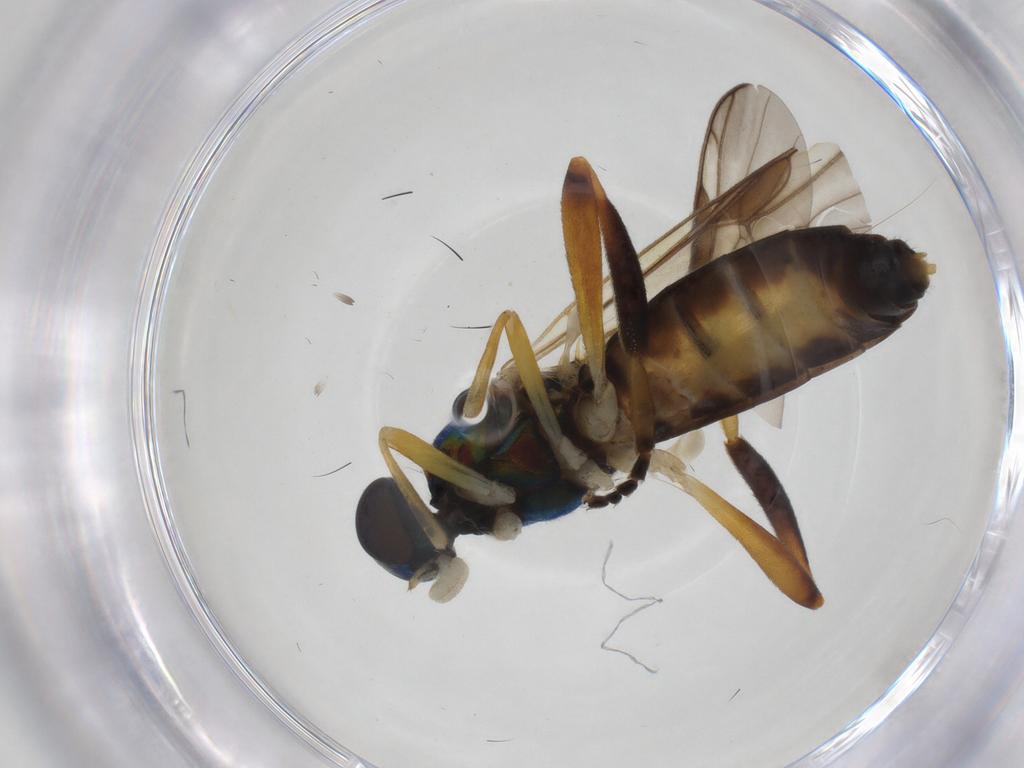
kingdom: Animalia
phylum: Arthropoda
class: Insecta
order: Diptera
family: Stratiomyidae
